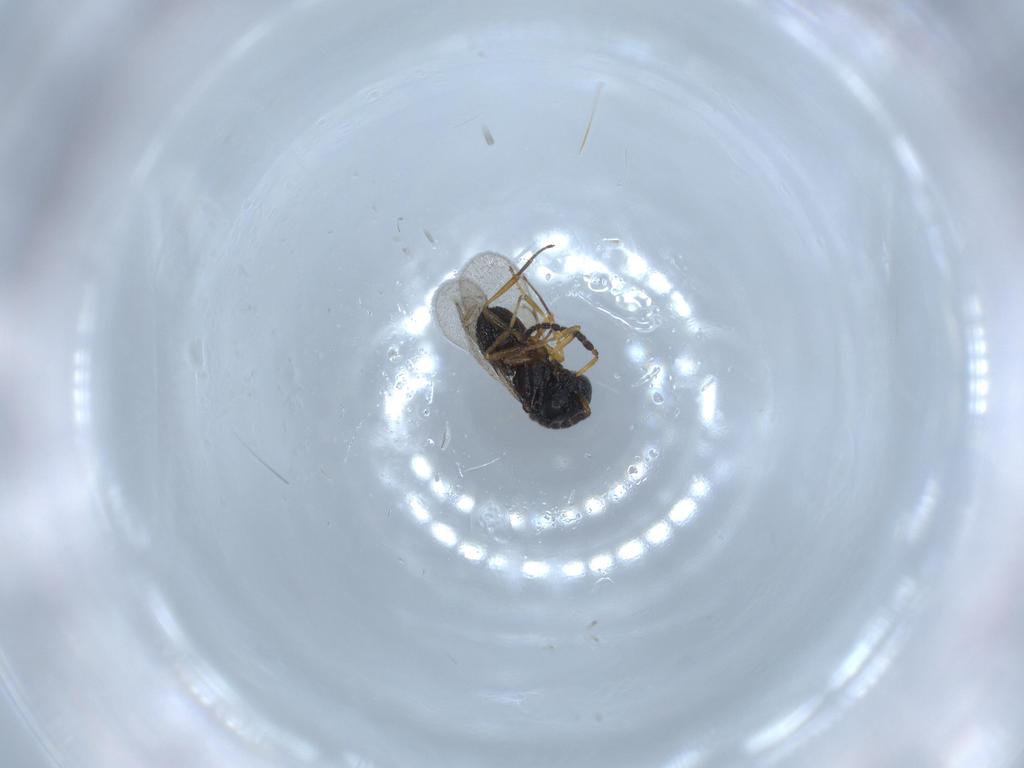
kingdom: Animalia
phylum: Arthropoda
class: Insecta
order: Hymenoptera
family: Scelionidae
